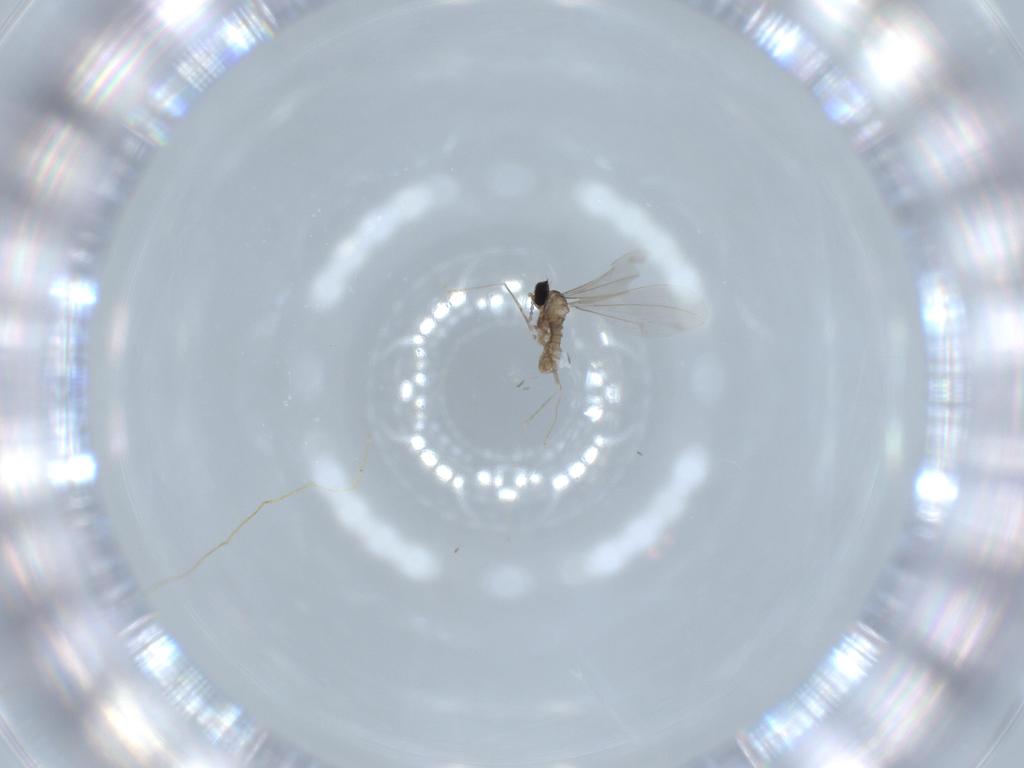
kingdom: Animalia
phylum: Arthropoda
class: Insecta
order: Diptera
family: Cecidomyiidae
